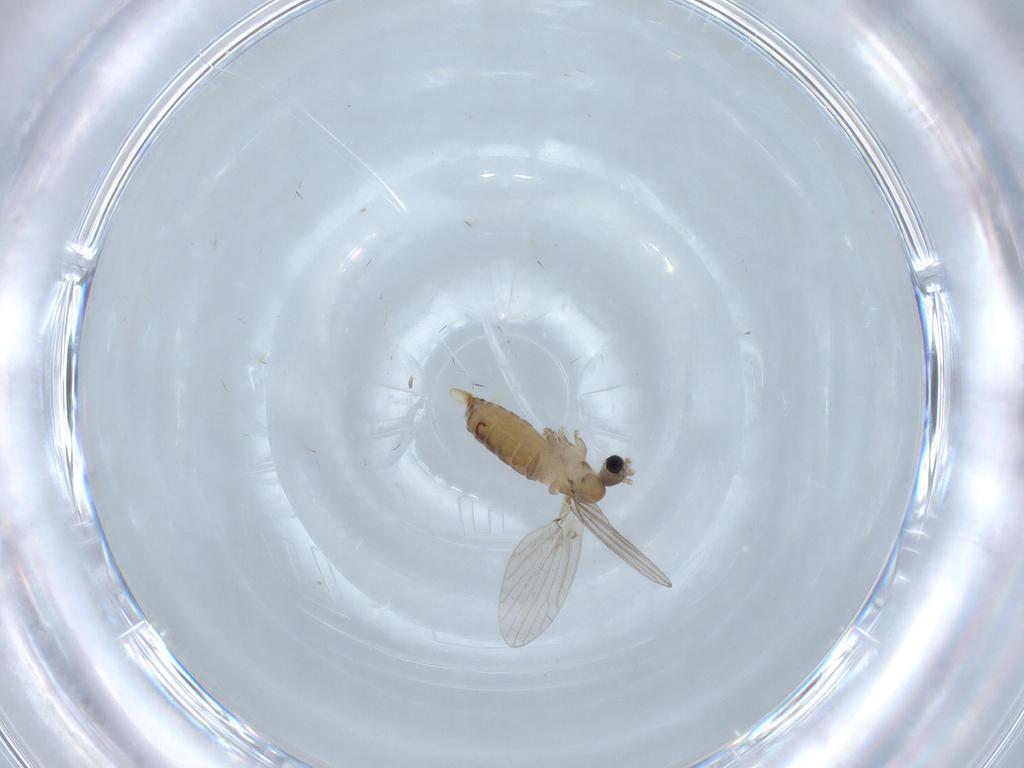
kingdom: Animalia
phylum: Arthropoda
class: Insecta
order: Diptera
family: Psychodidae
